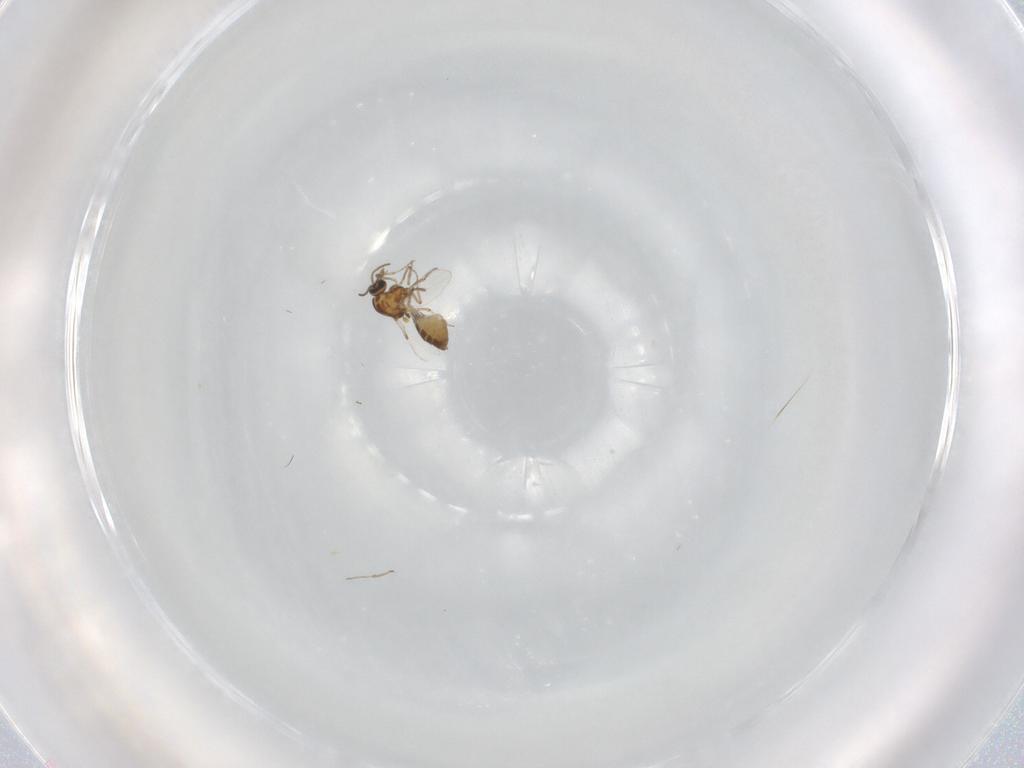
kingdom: Animalia
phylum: Arthropoda
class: Insecta
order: Diptera
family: Ceratopogonidae
